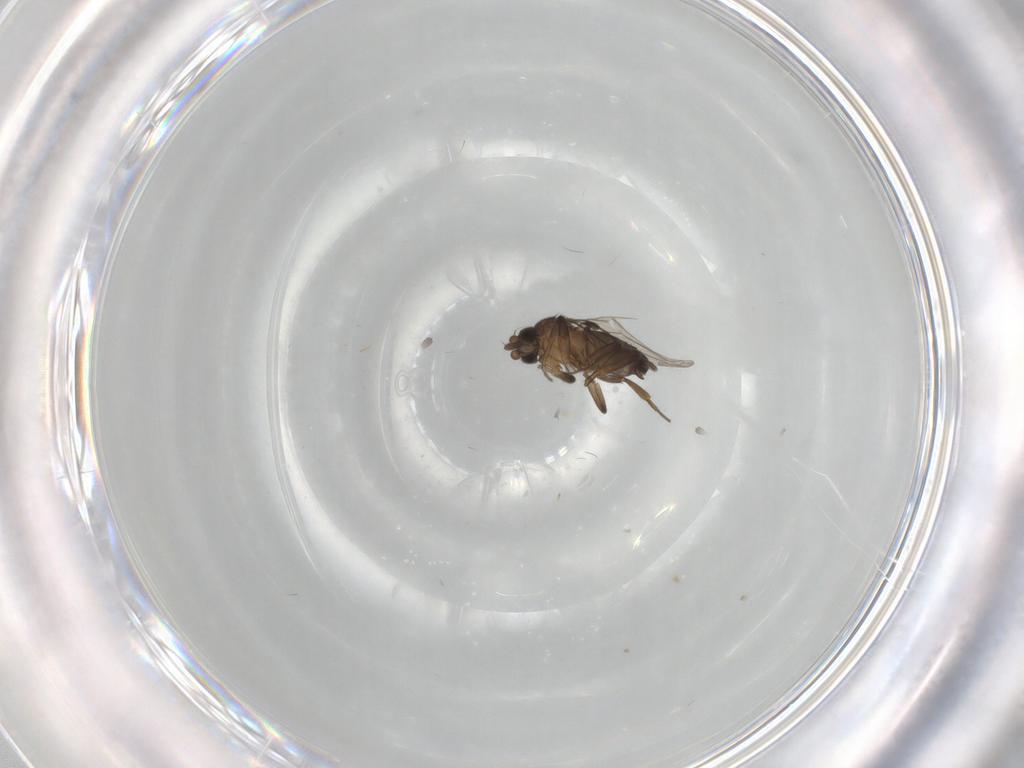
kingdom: Animalia
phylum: Arthropoda
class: Insecta
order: Diptera
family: Phoridae
